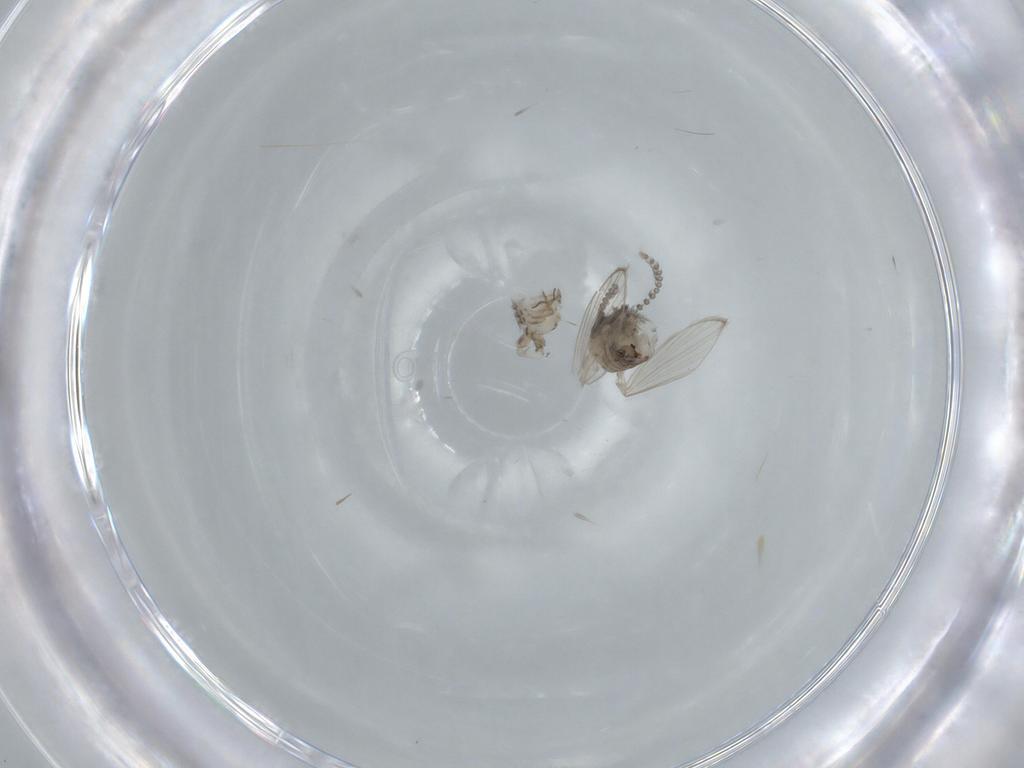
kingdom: Animalia
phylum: Arthropoda
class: Insecta
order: Diptera
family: Psychodidae
